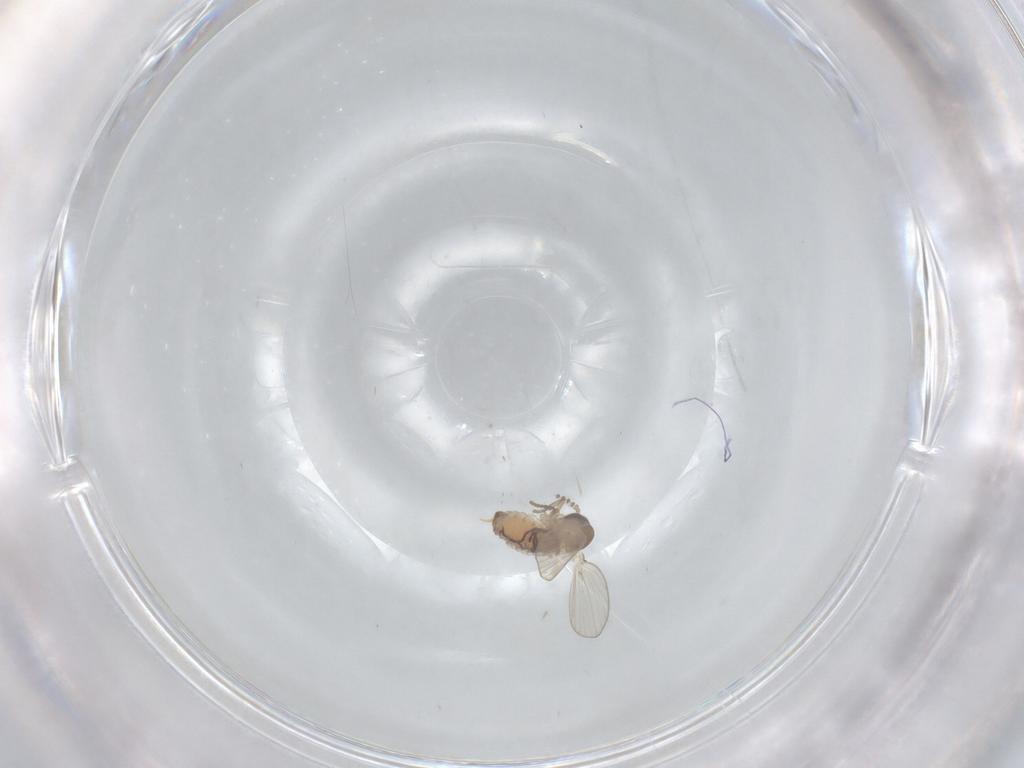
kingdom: Animalia
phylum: Arthropoda
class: Insecta
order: Diptera
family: Psychodidae
